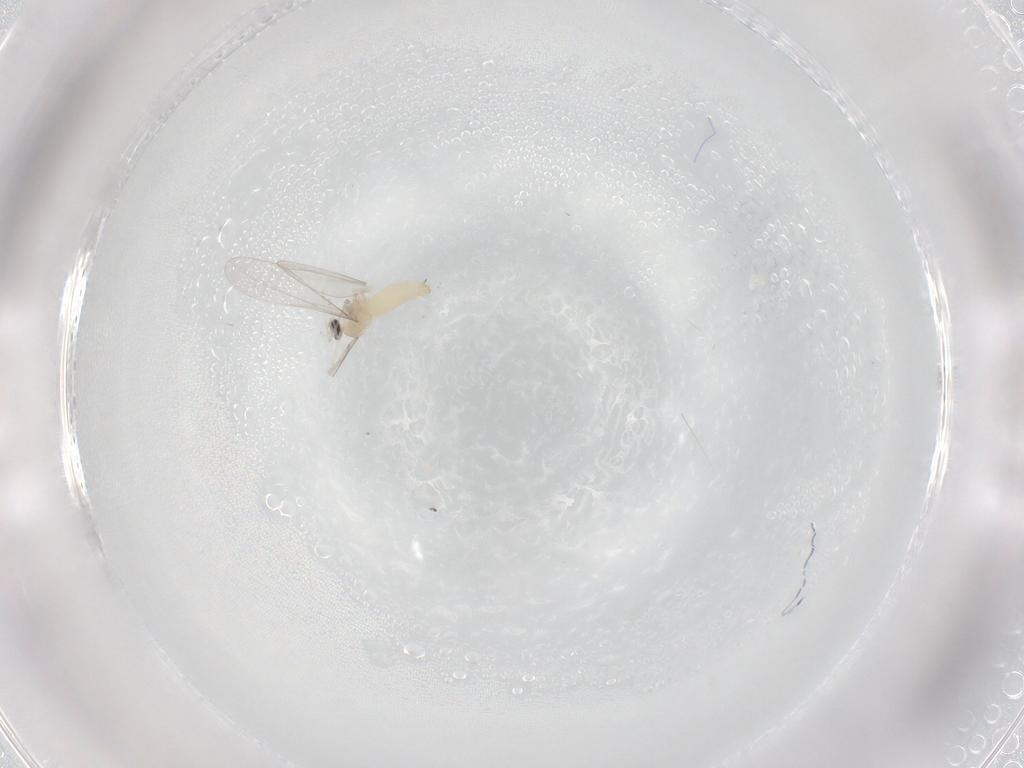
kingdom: Animalia
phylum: Arthropoda
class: Insecta
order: Diptera
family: Cecidomyiidae
